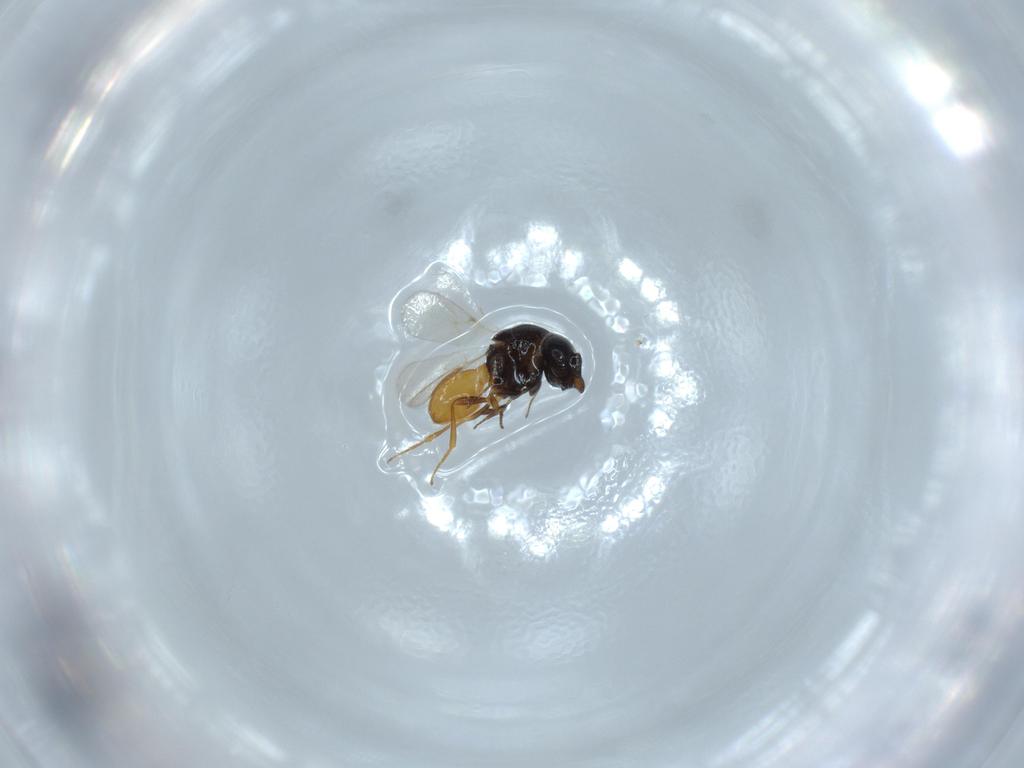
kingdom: Animalia
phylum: Arthropoda
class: Insecta
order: Hymenoptera
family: Scelionidae
